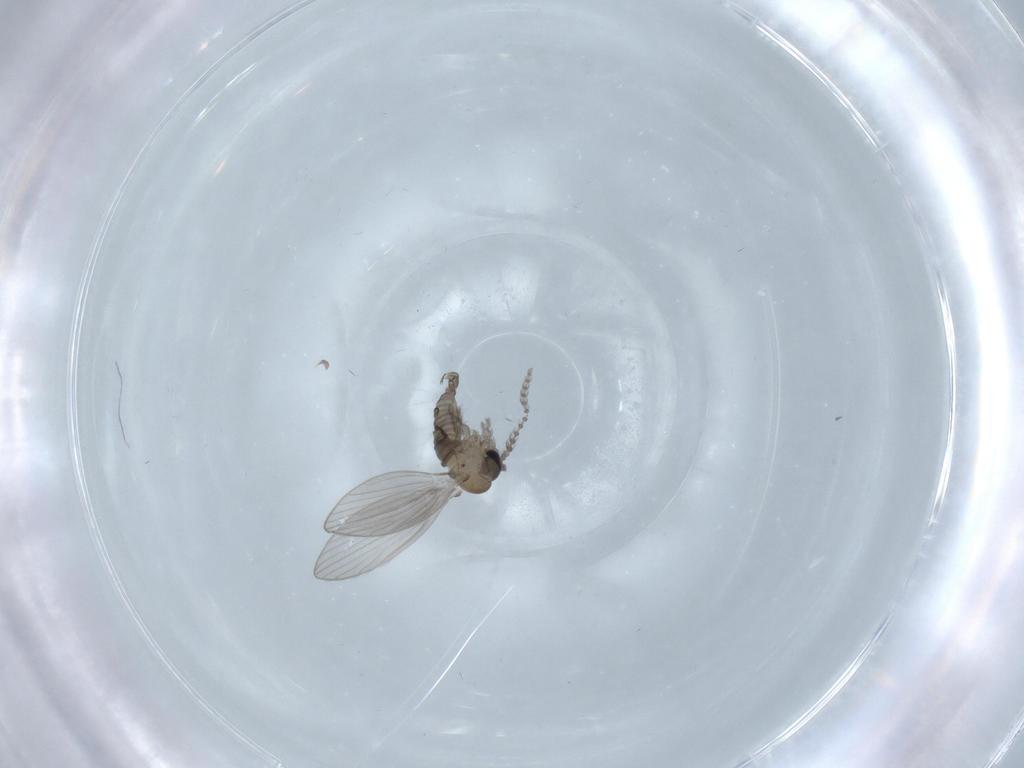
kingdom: Animalia
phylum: Arthropoda
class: Insecta
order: Diptera
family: Psychodidae
